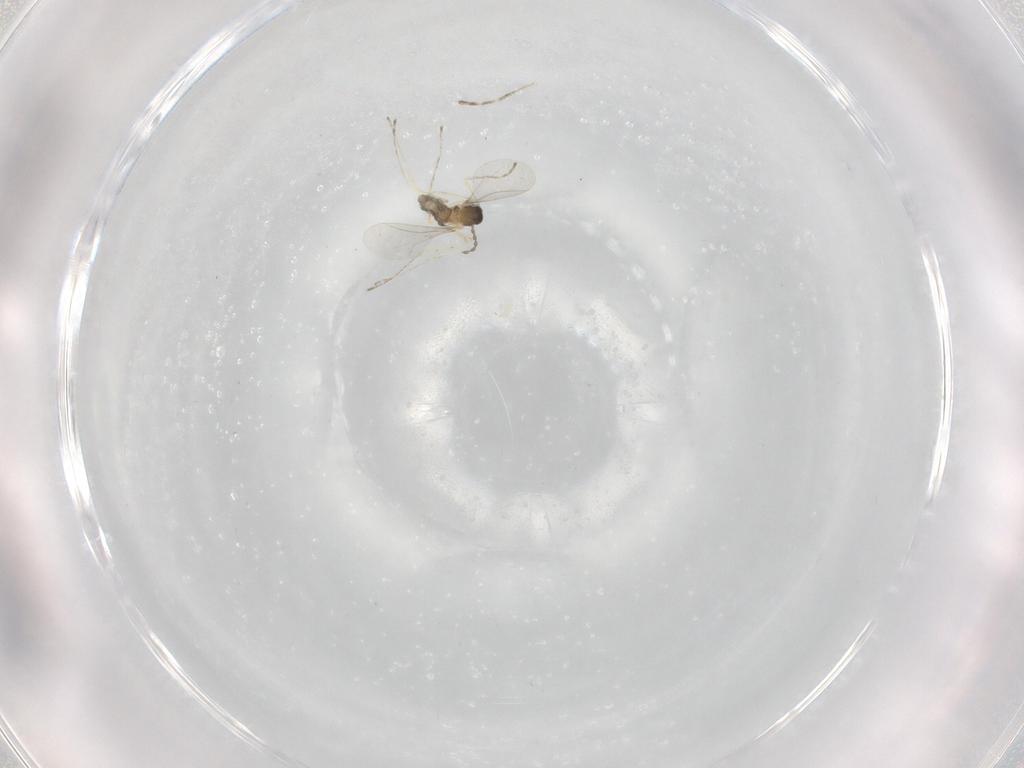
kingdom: Animalia
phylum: Arthropoda
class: Insecta
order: Diptera
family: Cecidomyiidae
